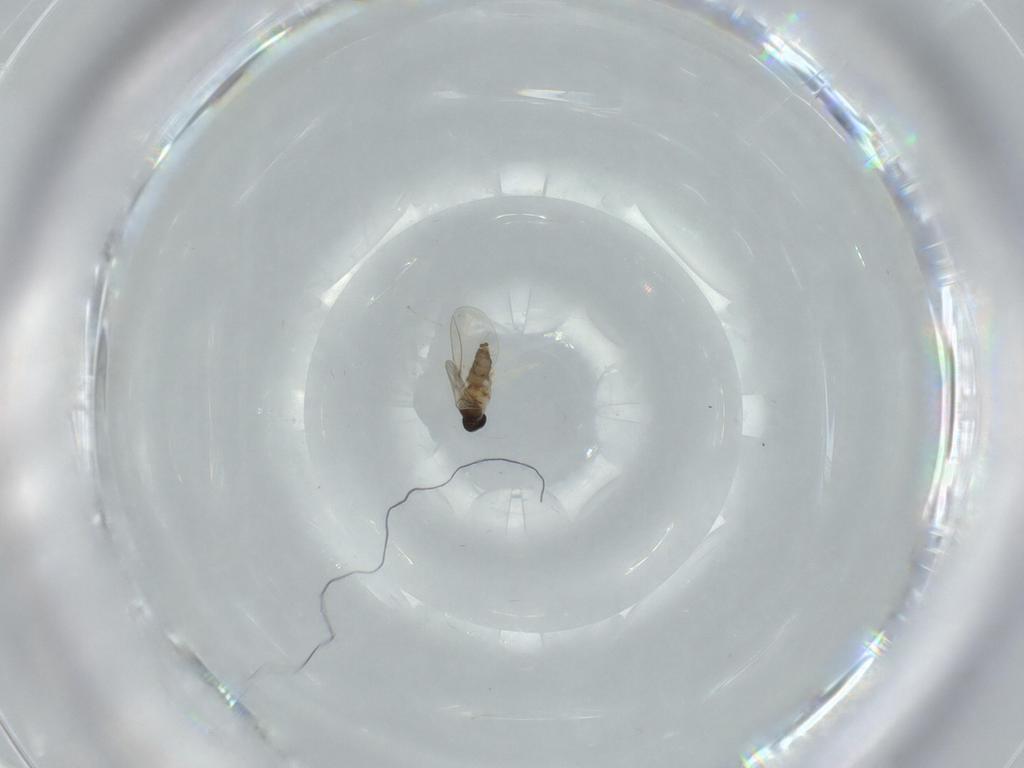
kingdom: Animalia
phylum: Arthropoda
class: Insecta
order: Diptera
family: Cecidomyiidae
